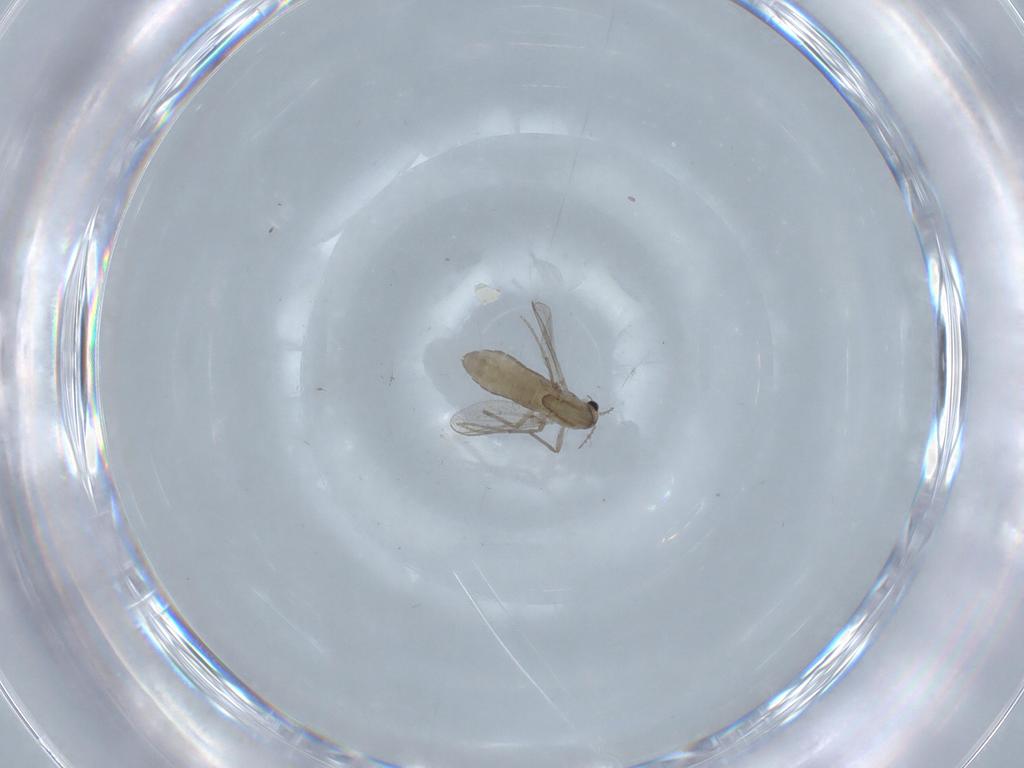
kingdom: Animalia
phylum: Arthropoda
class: Insecta
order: Diptera
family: Chironomidae
